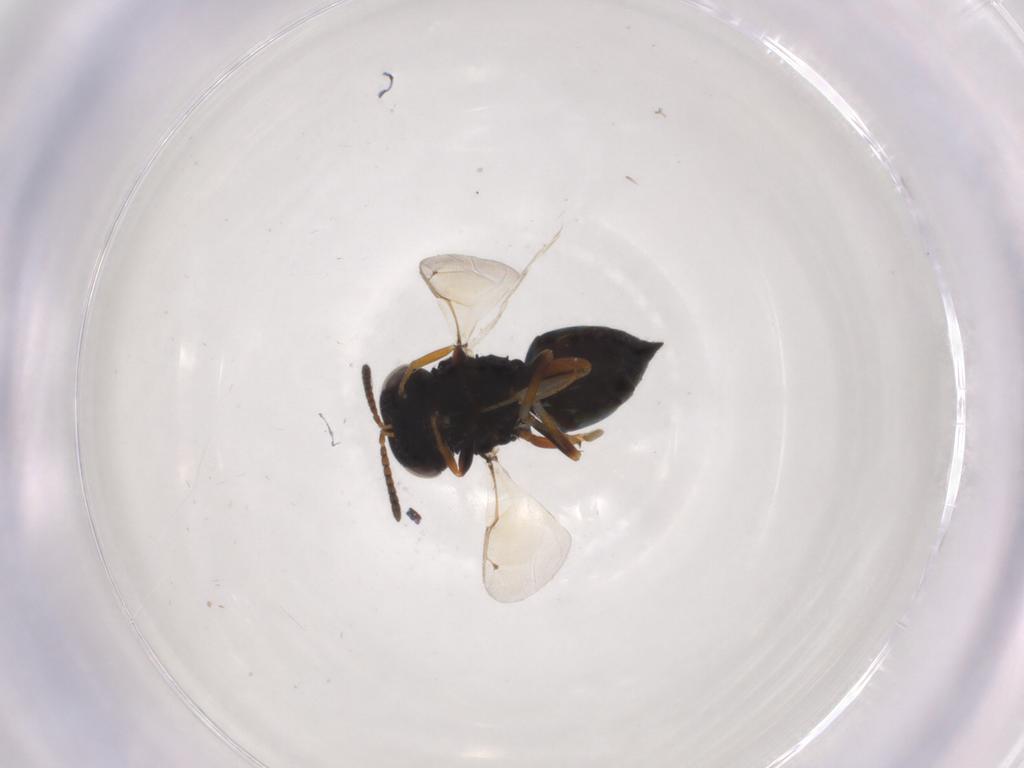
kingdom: Animalia
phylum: Arthropoda
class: Insecta
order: Hymenoptera
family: Pteromalidae
